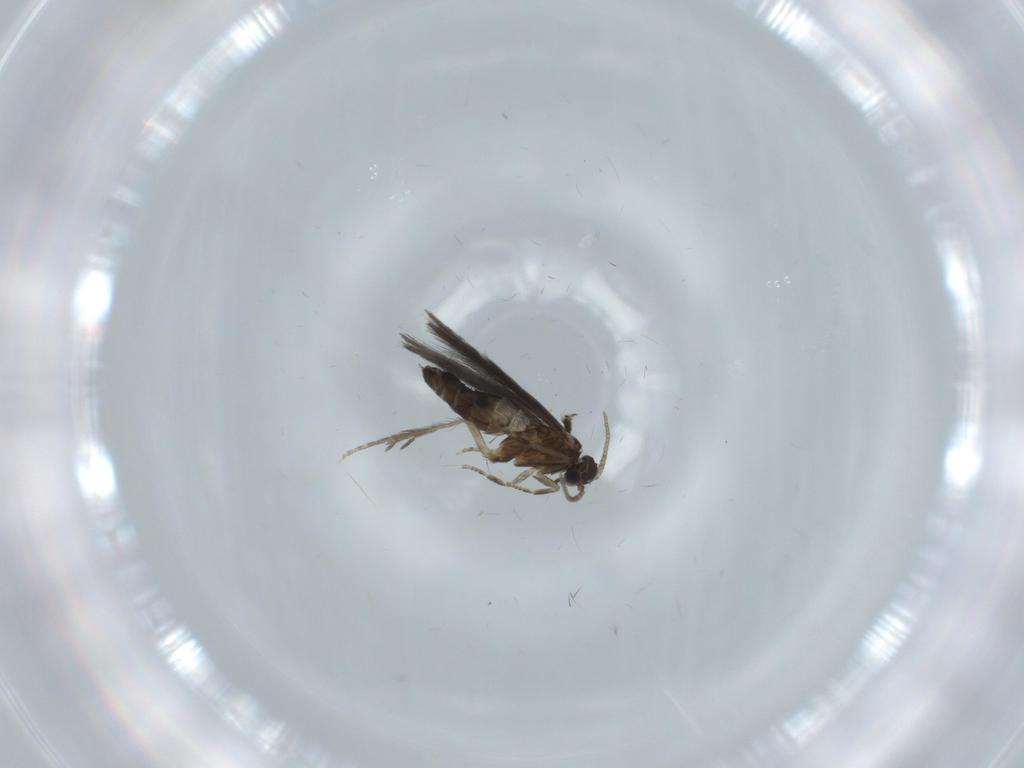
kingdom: Animalia
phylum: Arthropoda
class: Insecta
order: Trichoptera
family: Hydroptilidae
